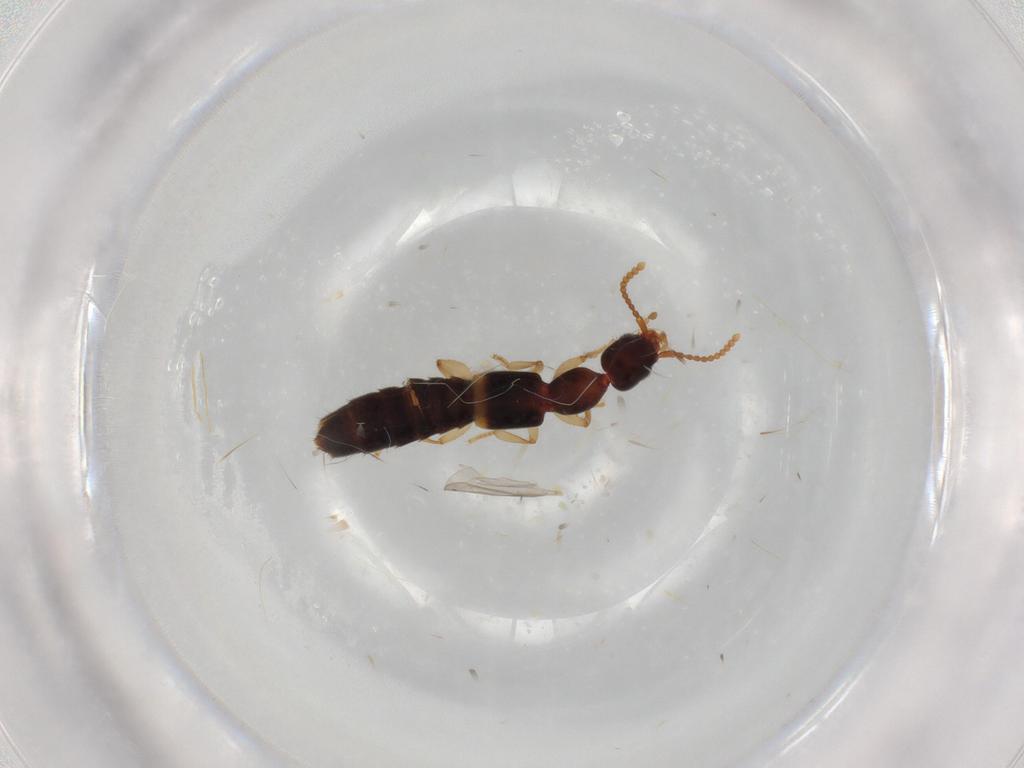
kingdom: Animalia
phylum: Arthropoda
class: Insecta
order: Coleoptera
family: Staphylinidae
